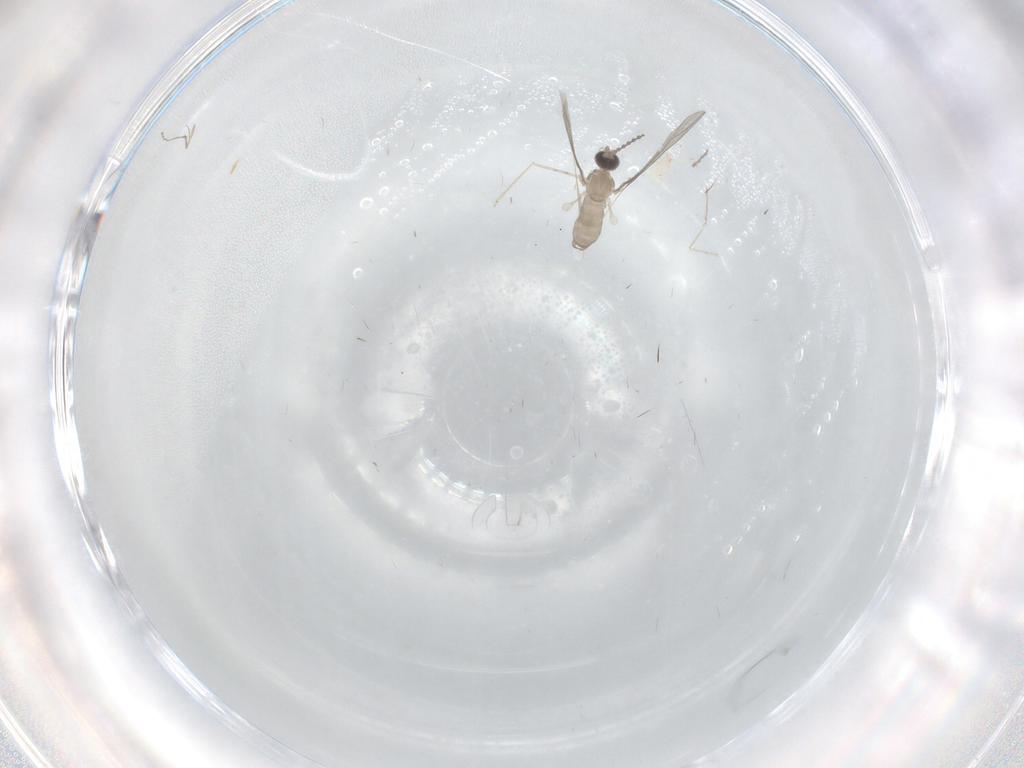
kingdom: Animalia
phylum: Arthropoda
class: Insecta
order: Diptera
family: Cecidomyiidae
